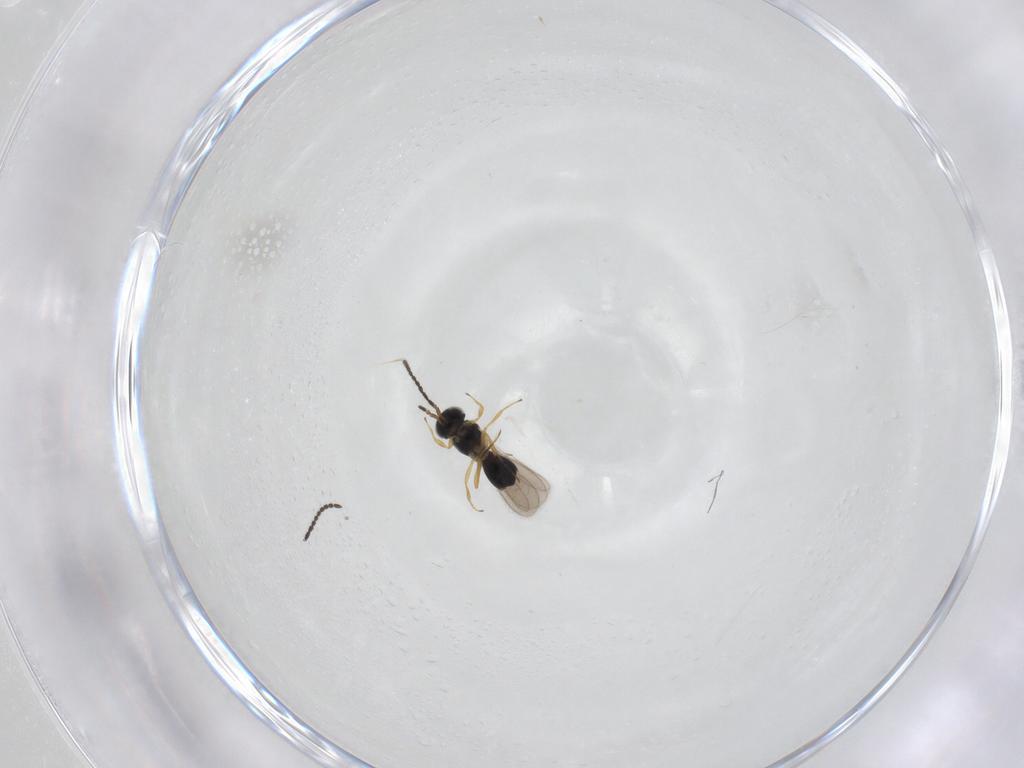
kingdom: Animalia
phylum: Arthropoda
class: Insecta
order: Hymenoptera
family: Scelionidae
